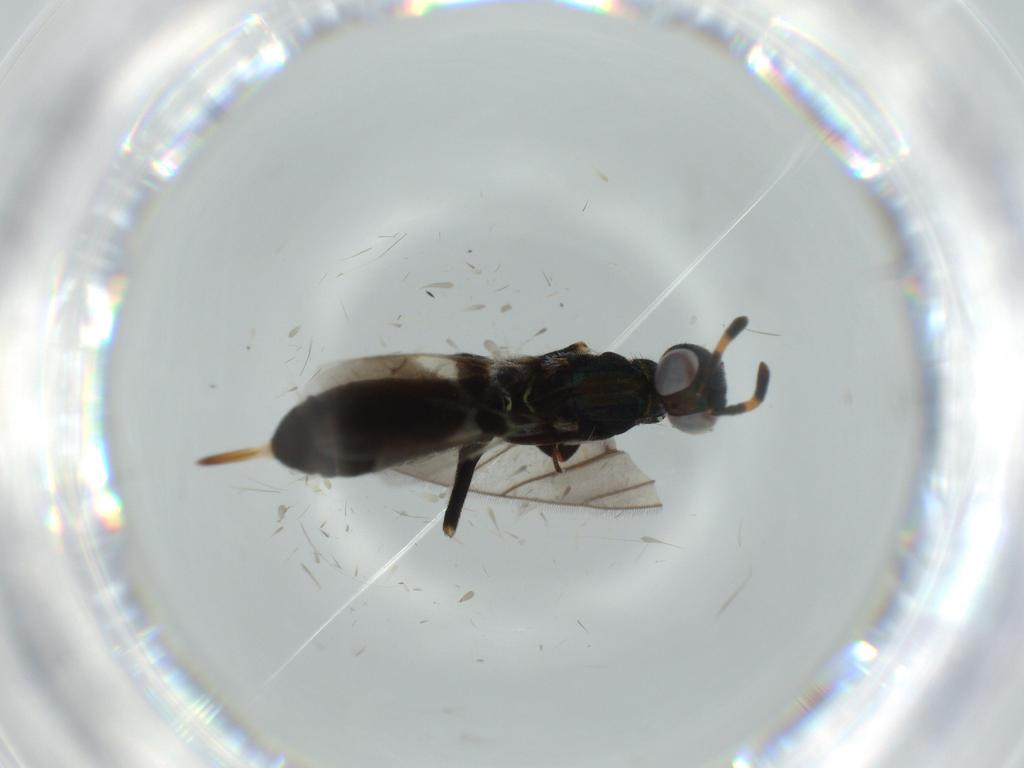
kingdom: Animalia
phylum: Arthropoda
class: Insecta
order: Hymenoptera
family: Eupelmidae
